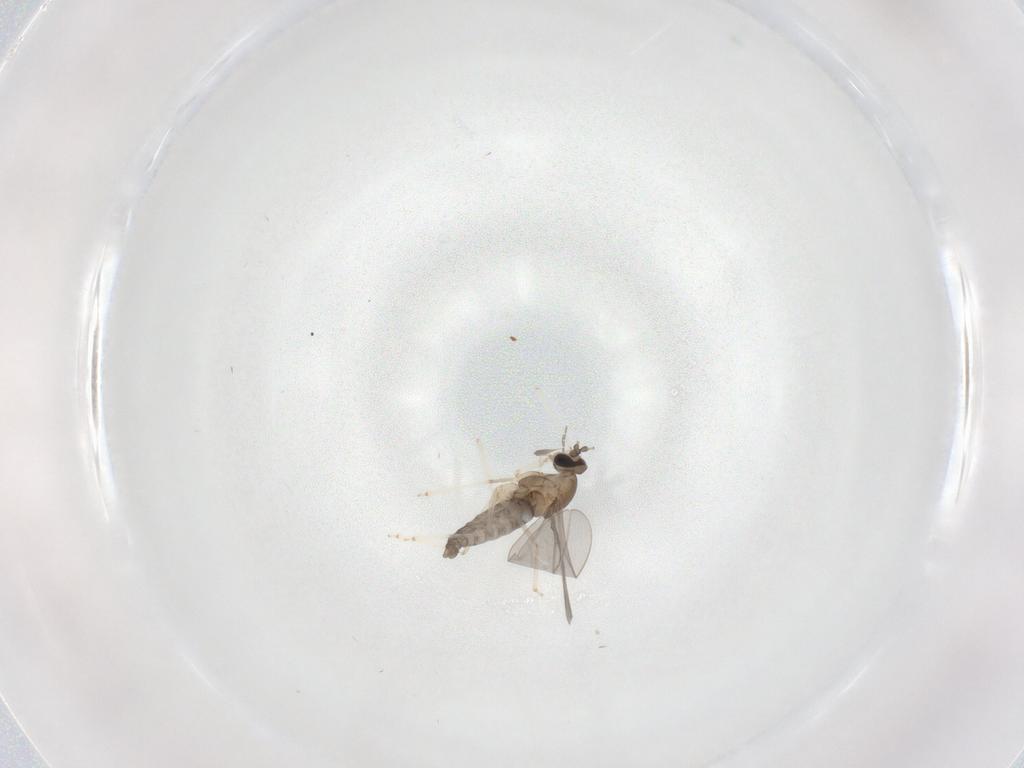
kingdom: Animalia
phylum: Arthropoda
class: Insecta
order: Diptera
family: Cecidomyiidae
